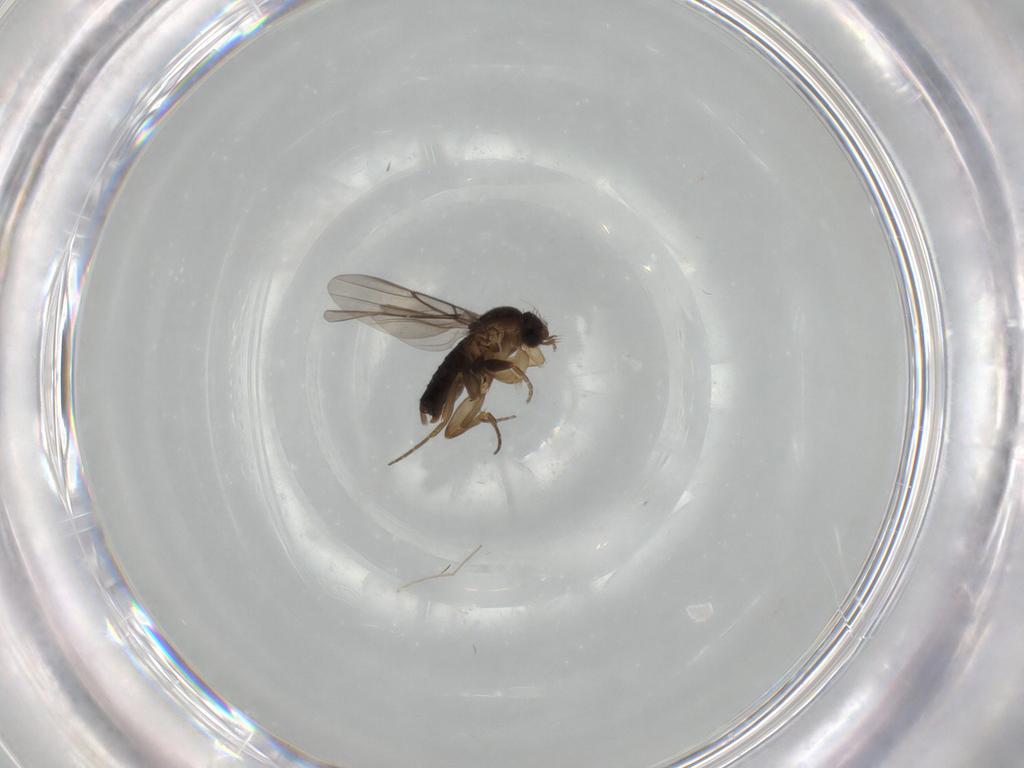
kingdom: Animalia
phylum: Arthropoda
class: Insecta
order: Diptera
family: Phoridae
